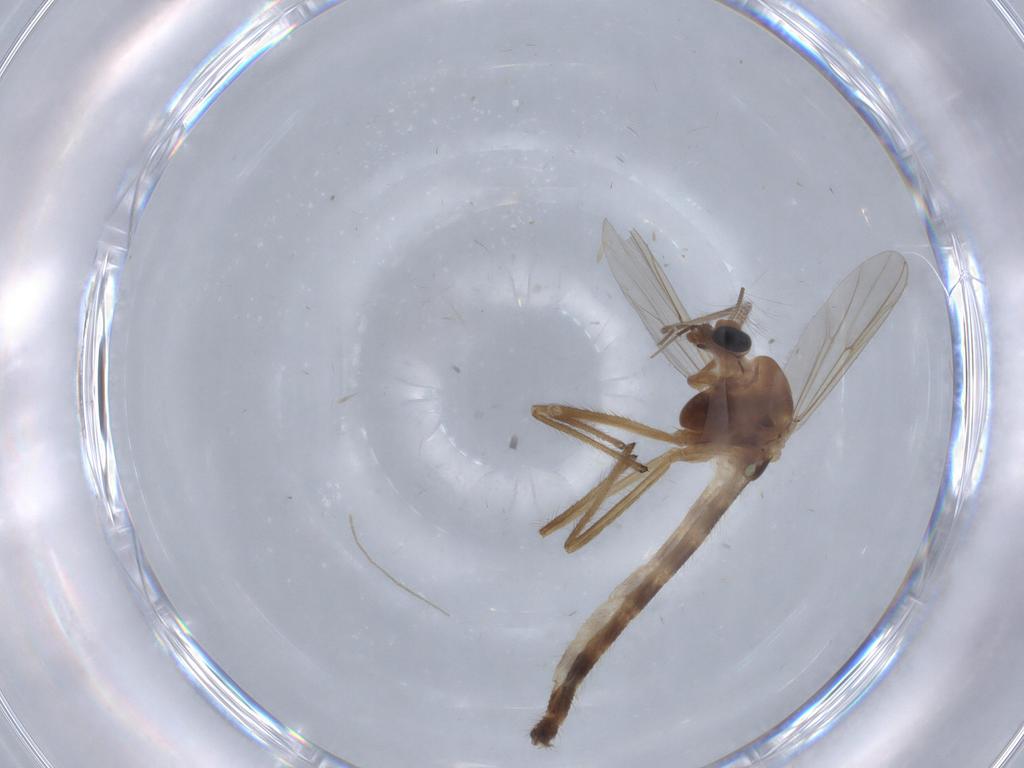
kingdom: Animalia
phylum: Arthropoda
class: Insecta
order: Diptera
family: Chironomidae
